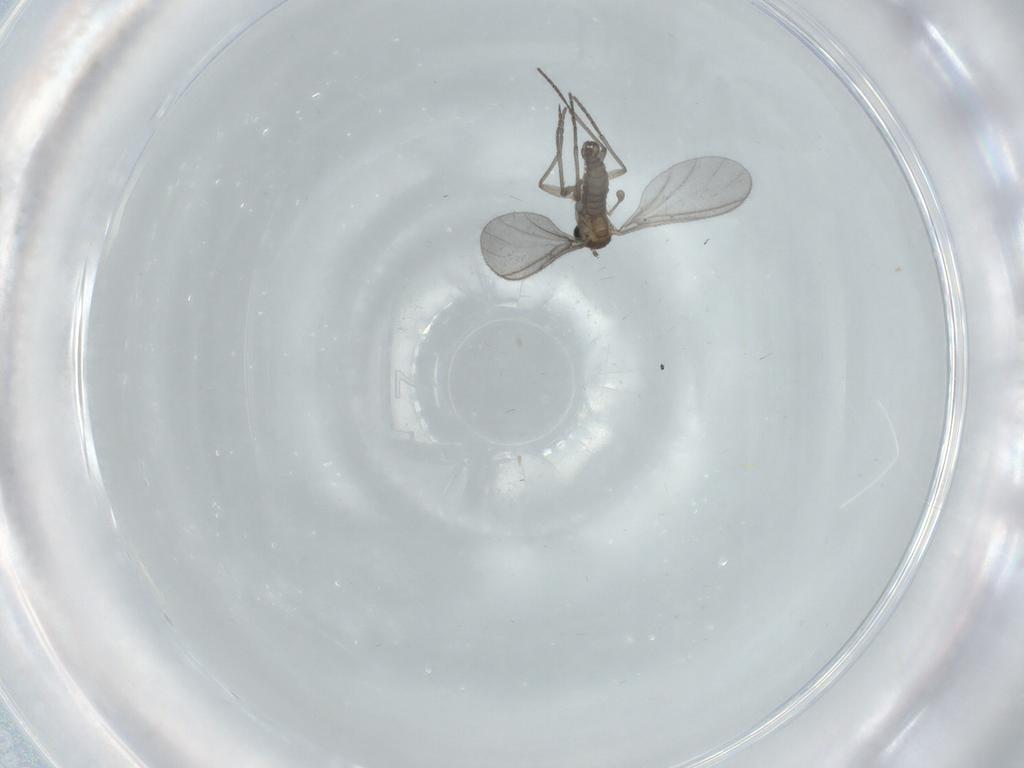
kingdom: Animalia
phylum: Arthropoda
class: Insecta
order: Diptera
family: Sciaridae
